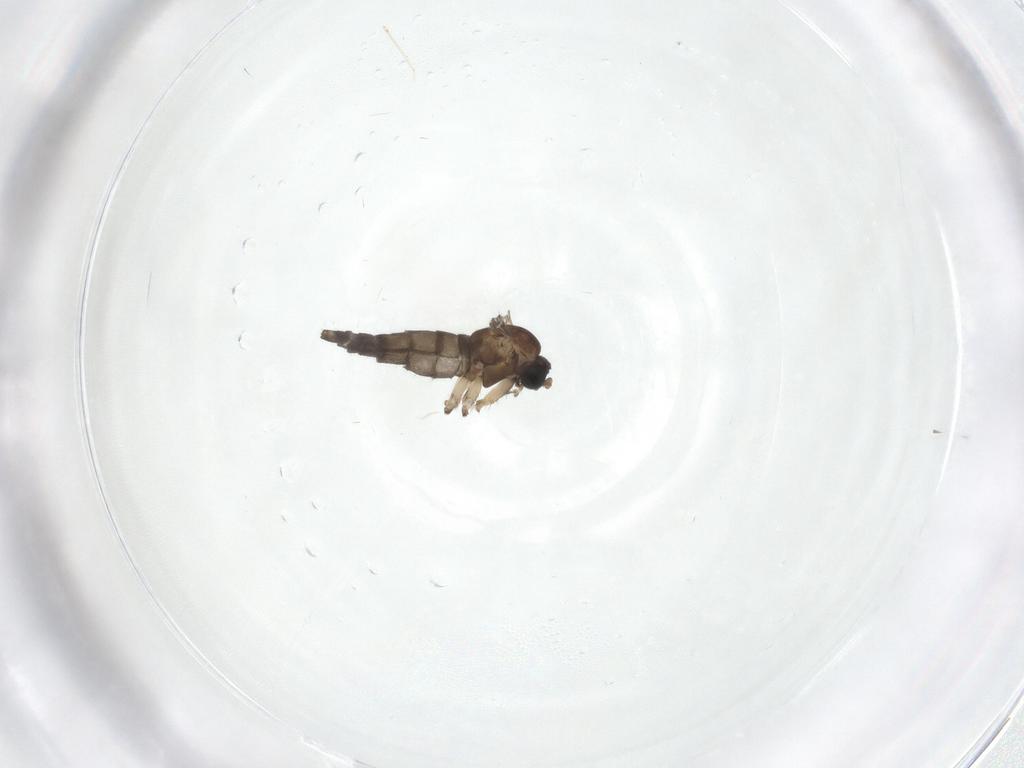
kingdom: Animalia
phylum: Arthropoda
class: Insecta
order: Diptera
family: Sciaridae
